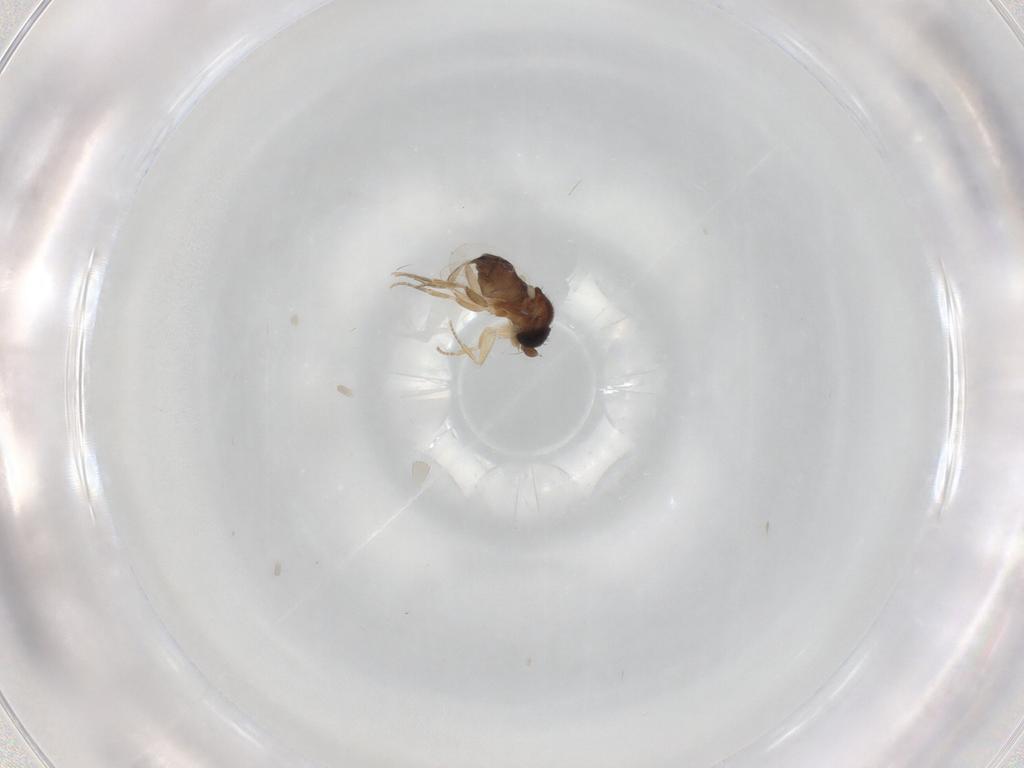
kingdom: Animalia
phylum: Arthropoda
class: Insecta
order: Diptera
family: Phoridae
